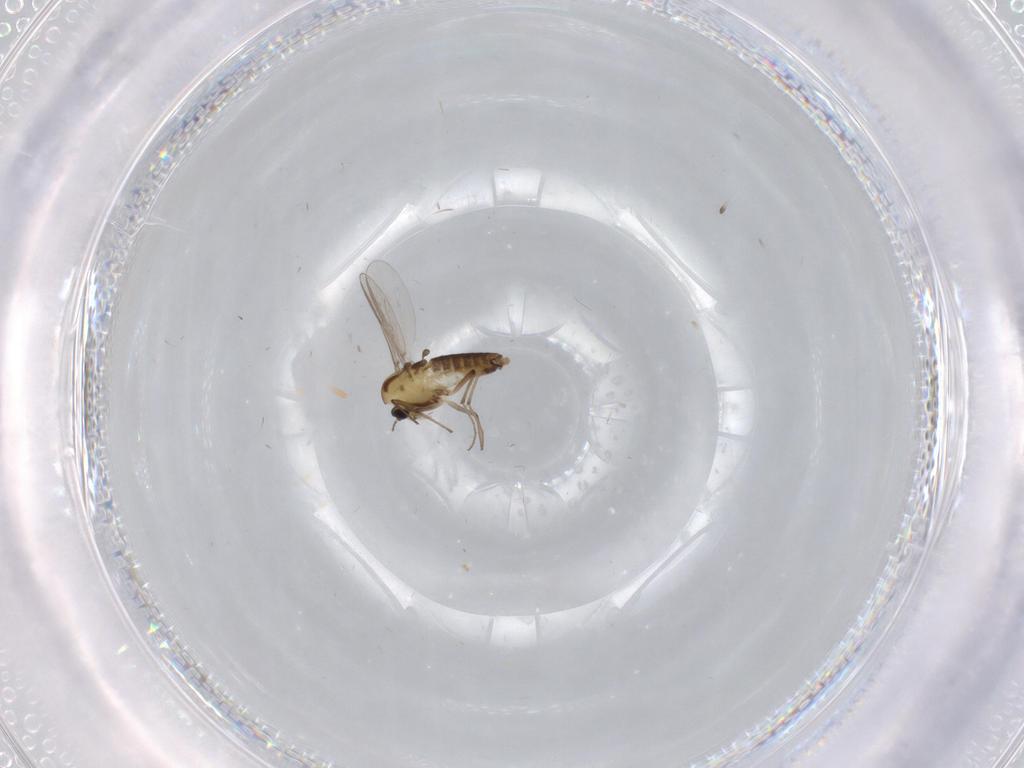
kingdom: Animalia
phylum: Arthropoda
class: Insecta
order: Diptera
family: Chironomidae
